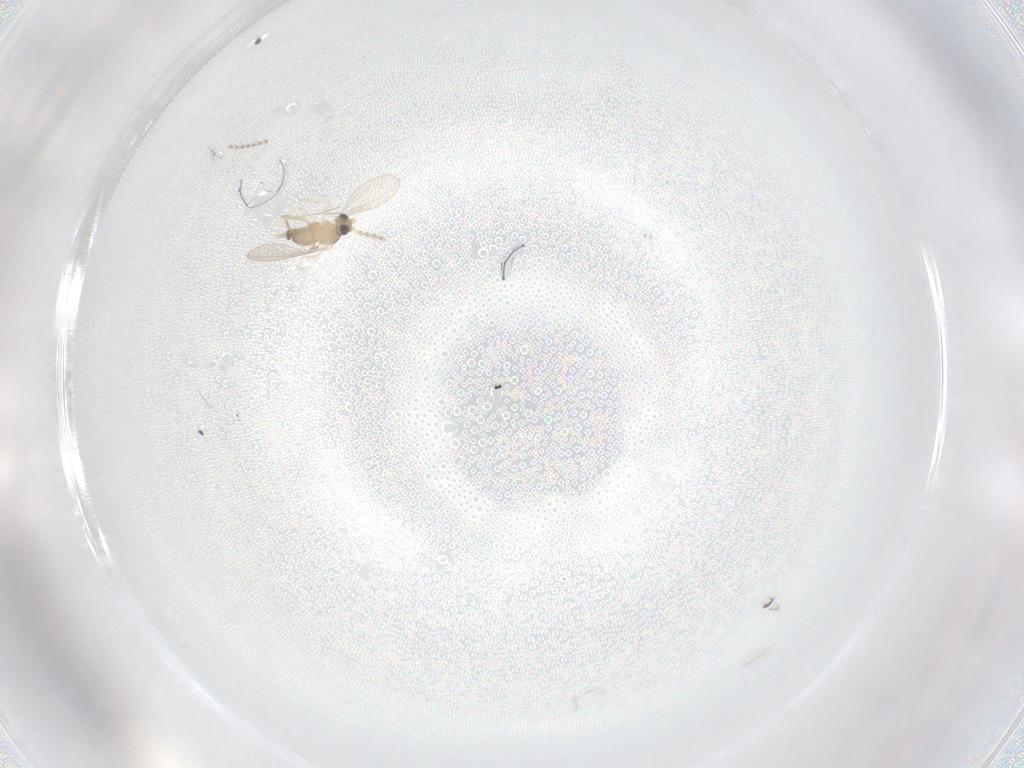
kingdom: Animalia
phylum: Arthropoda
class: Insecta
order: Diptera
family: Cecidomyiidae
